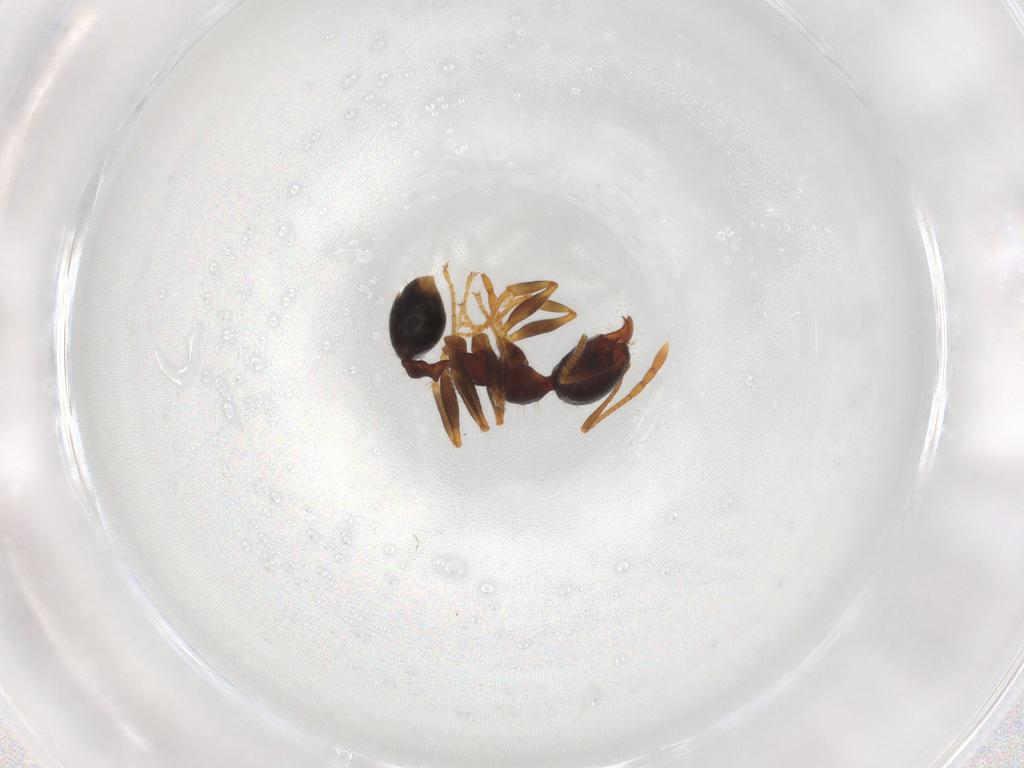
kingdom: Animalia
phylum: Arthropoda
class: Insecta
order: Hymenoptera
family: Formicidae
